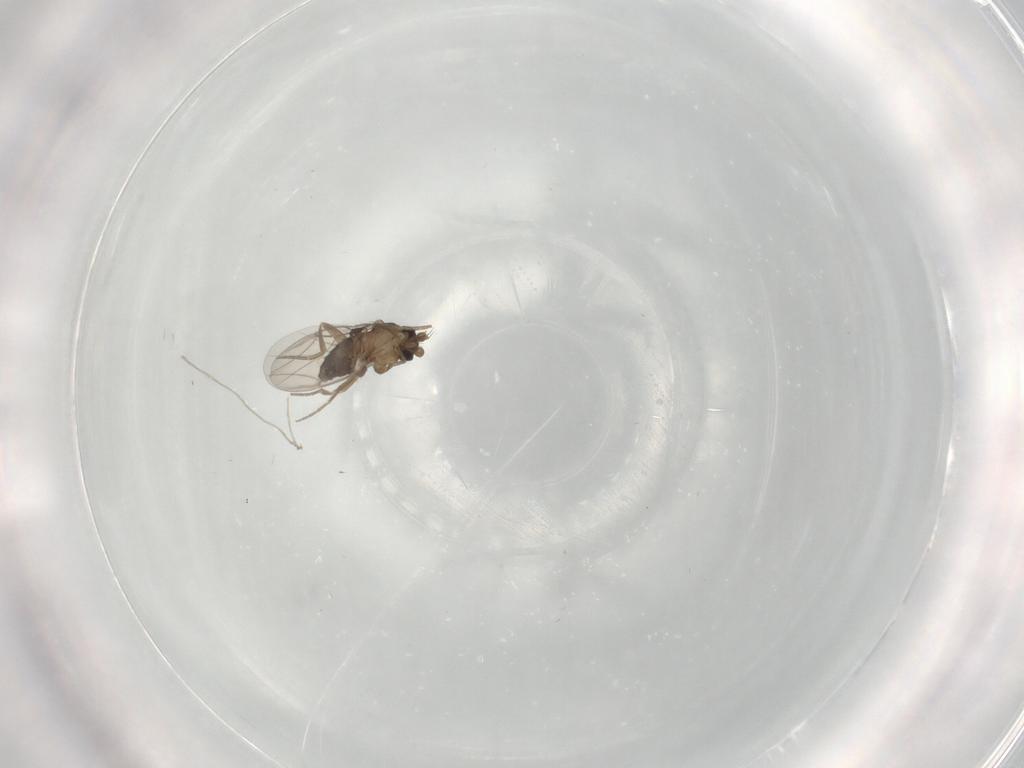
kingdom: Animalia
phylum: Arthropoda
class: Insecta
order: Diptera
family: Phoridae
